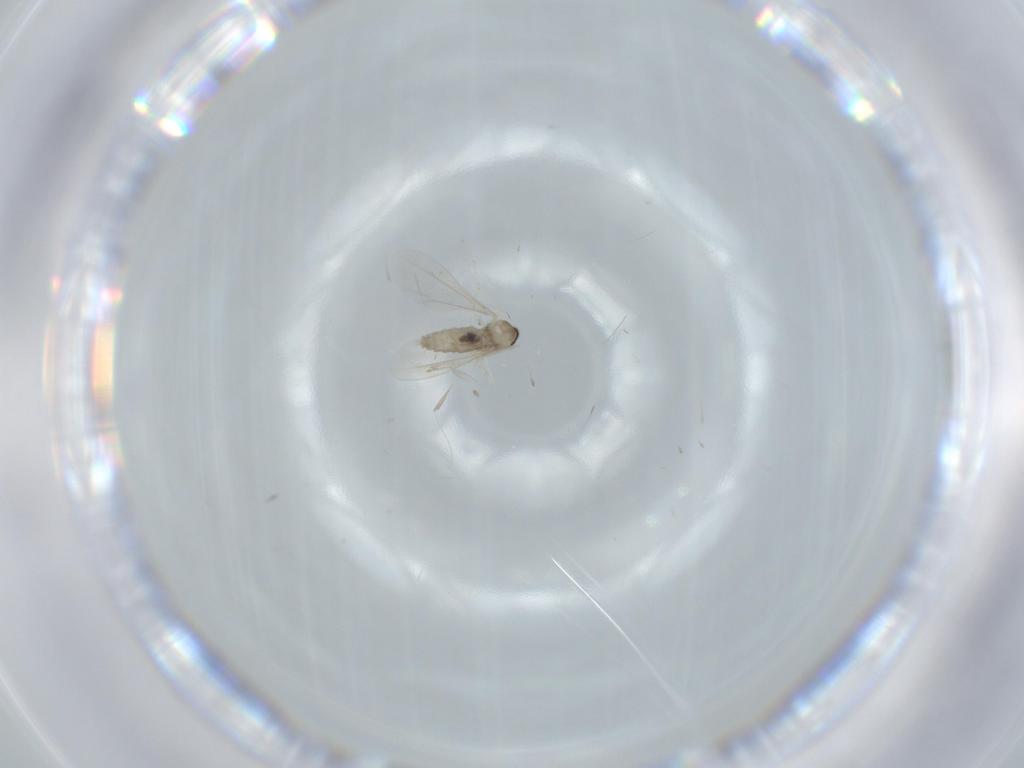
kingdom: Animalia
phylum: Arthropoda
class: Insecta
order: Diptera
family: Cecidomyiidae
